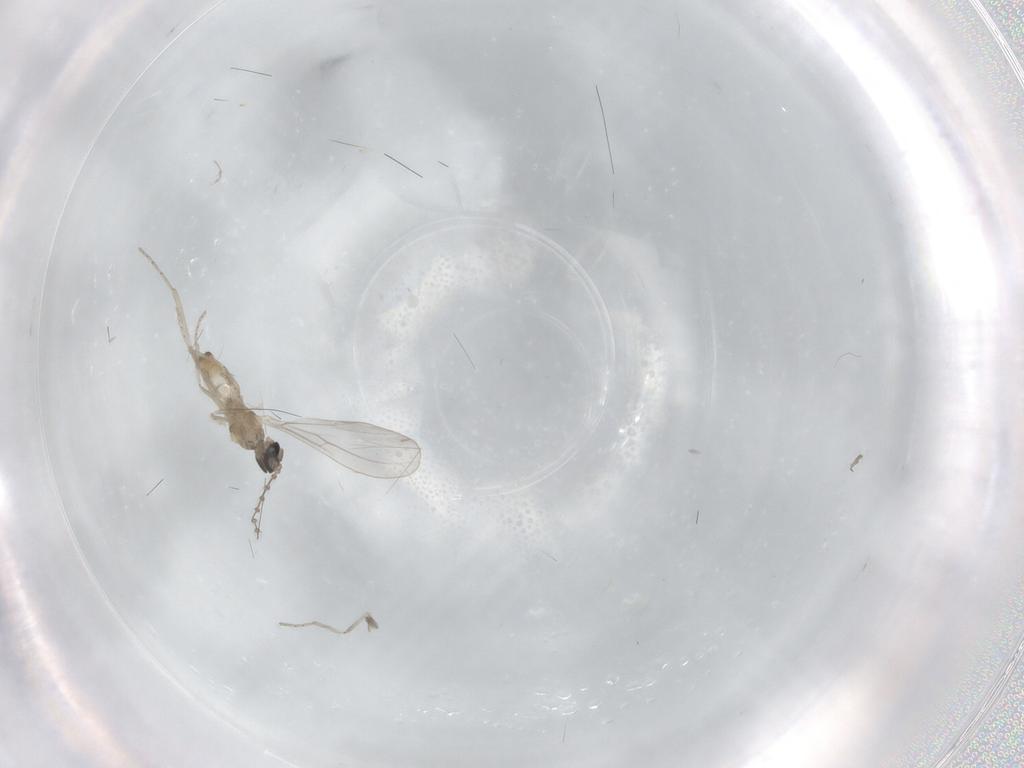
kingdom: Animalia
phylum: Arthropoda
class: Insecta
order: Diptera
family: Cecidomyiidae
